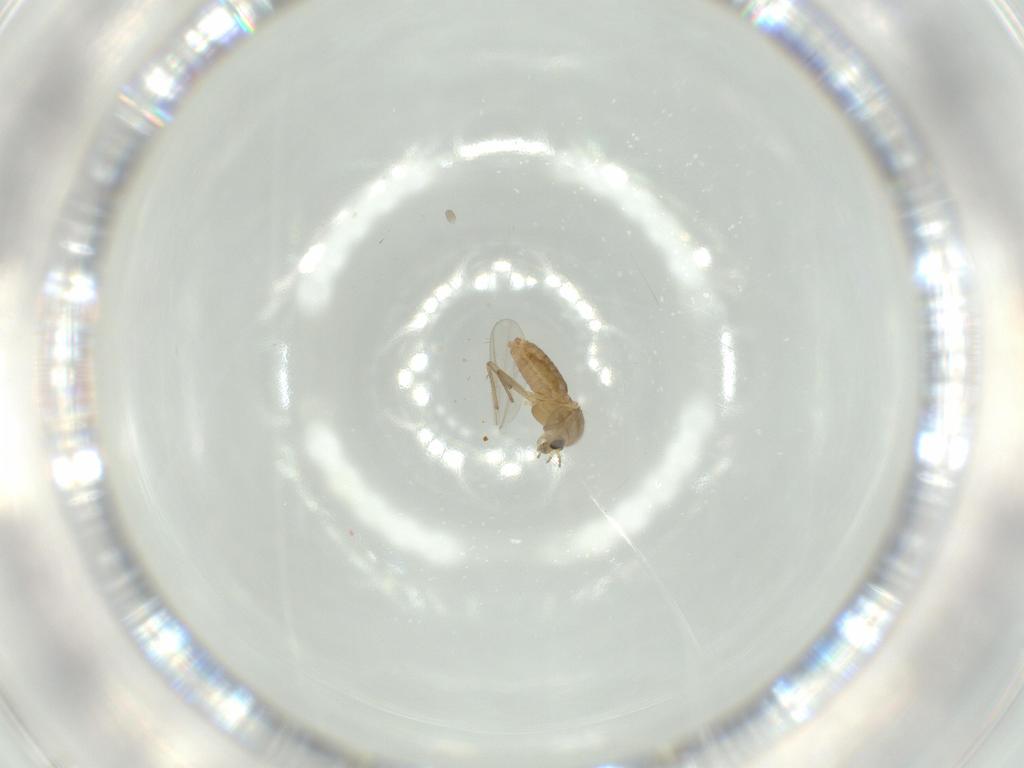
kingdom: Animalia
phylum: Arthropoda
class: Insecta
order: Diptera
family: Chironomidae
